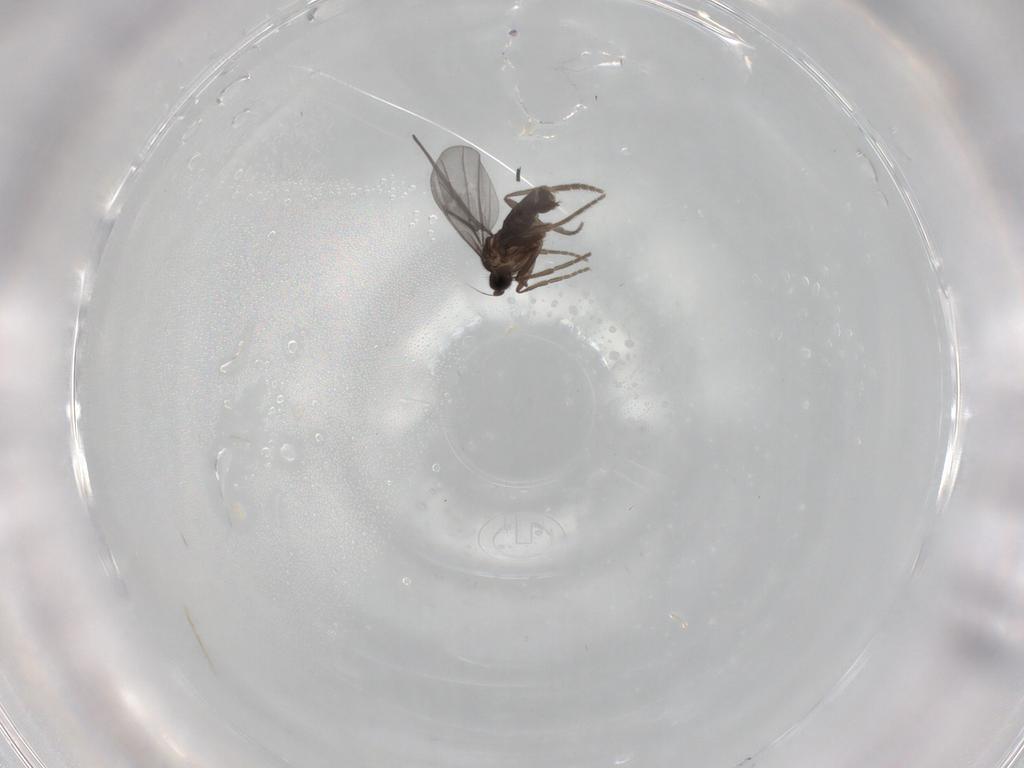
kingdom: Animalia
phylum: Arthropoda
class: Insecta
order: Diptera
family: Phoridae
